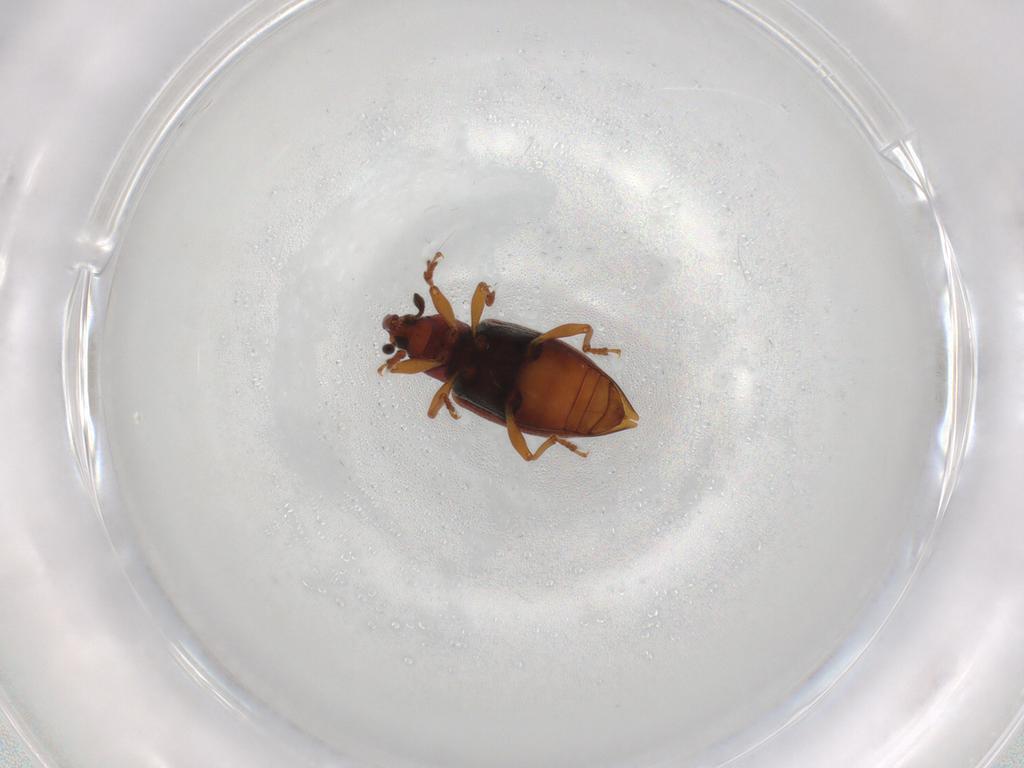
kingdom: Animalia
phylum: Arthropoda
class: Insecta
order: Coleoptera
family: Curculionidae
